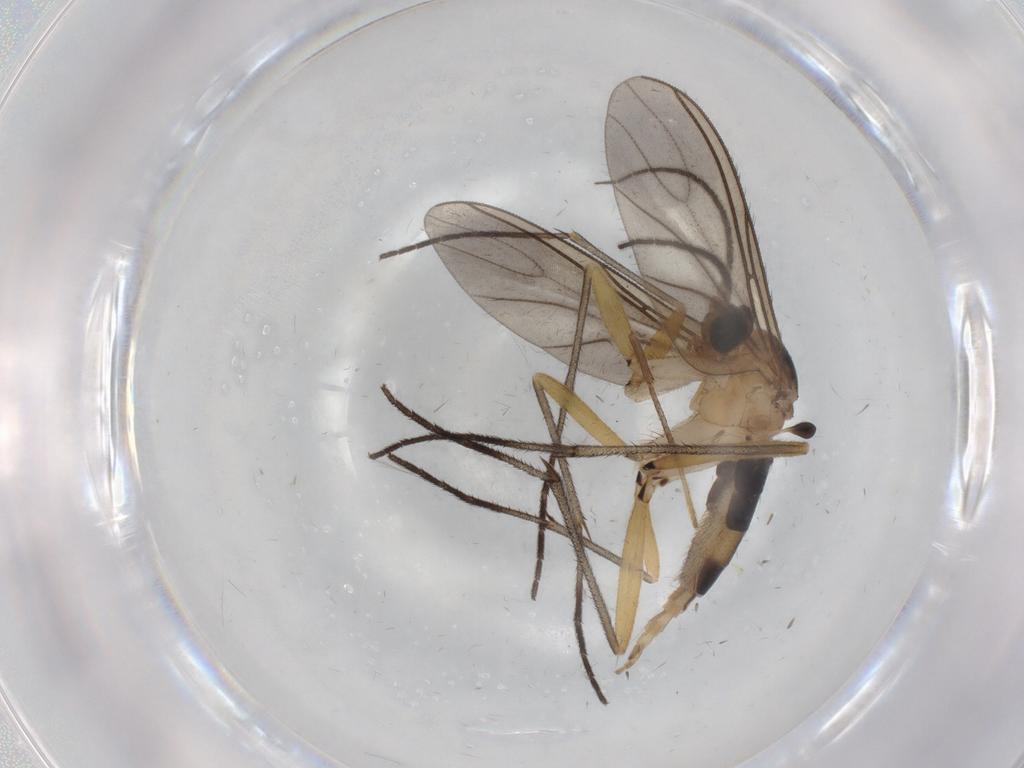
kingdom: Animalia
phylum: Arthropoda
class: Insecta
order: Diptera
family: Sciaridae
